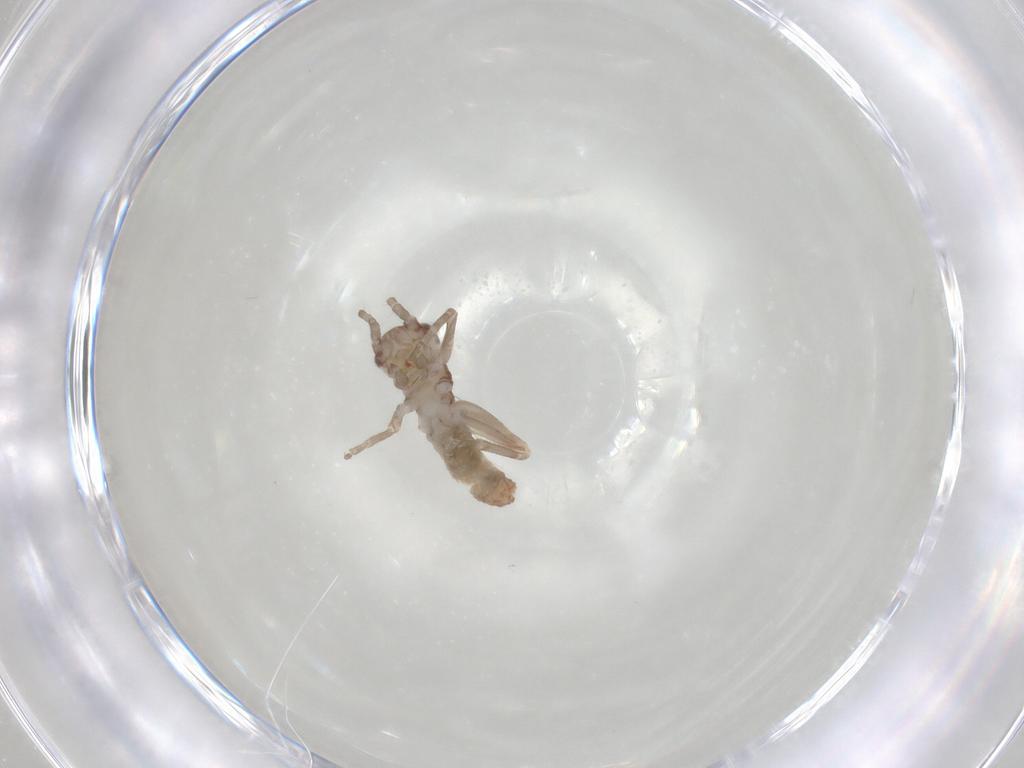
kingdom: Animalia
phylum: Arthropoda
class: Insecta
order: Orthoptera
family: Mogoplistidae
